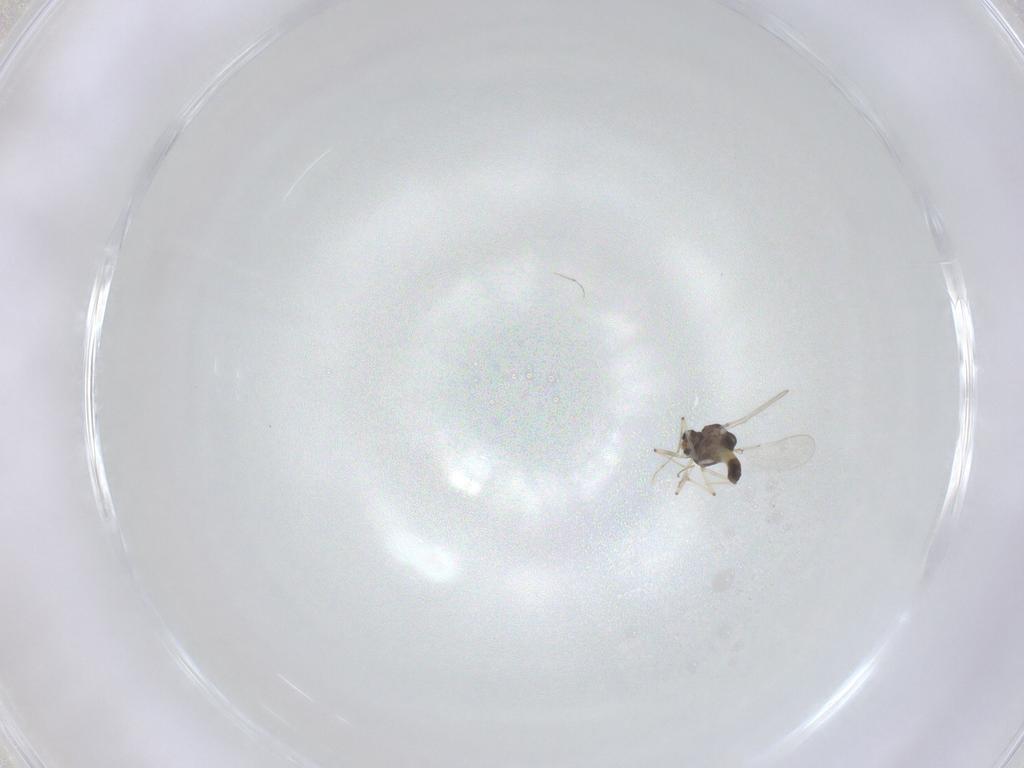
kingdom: Animalia
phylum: Arthropoda
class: Insecta
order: Diptera
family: Chironomidae
